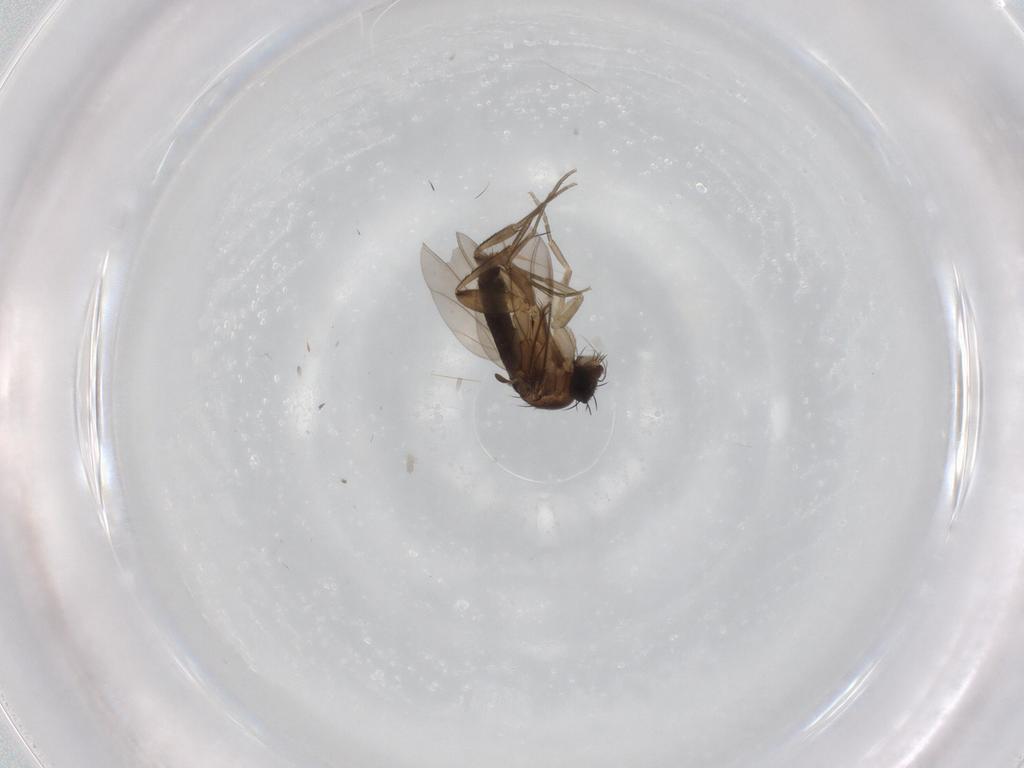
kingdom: Animalia
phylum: Arthropoda
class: Insecta
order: Diptera
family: Phoridae
